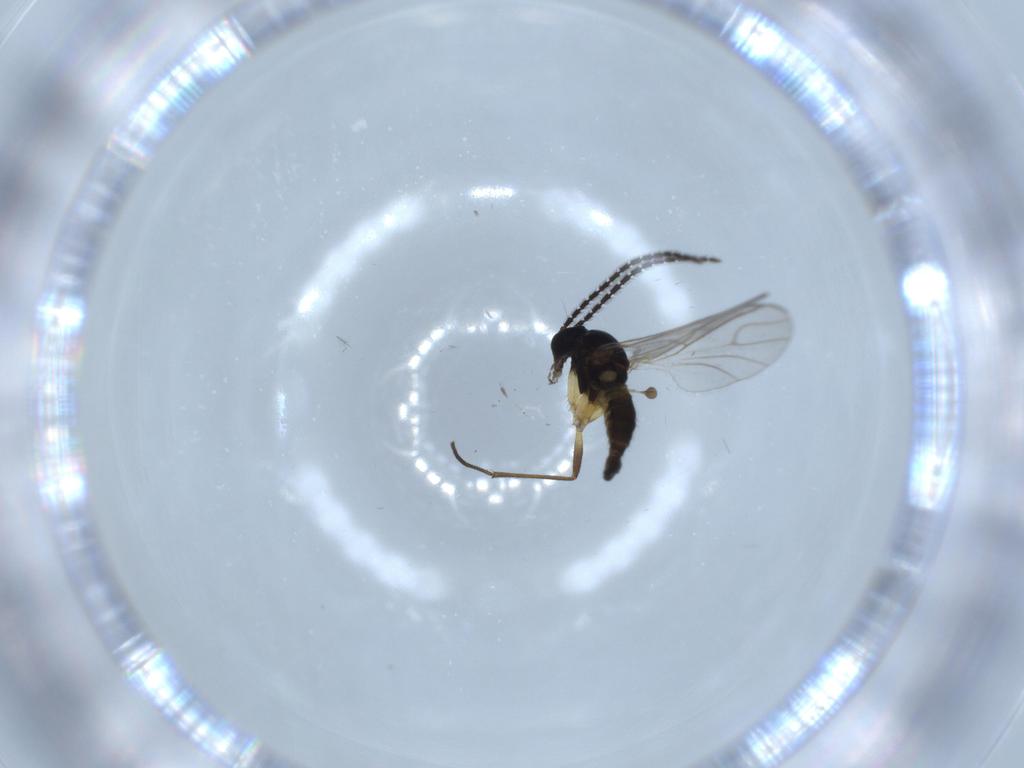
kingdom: Animalia
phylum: Arthropoda
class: Insecta
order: Diptera
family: Sciaridae
